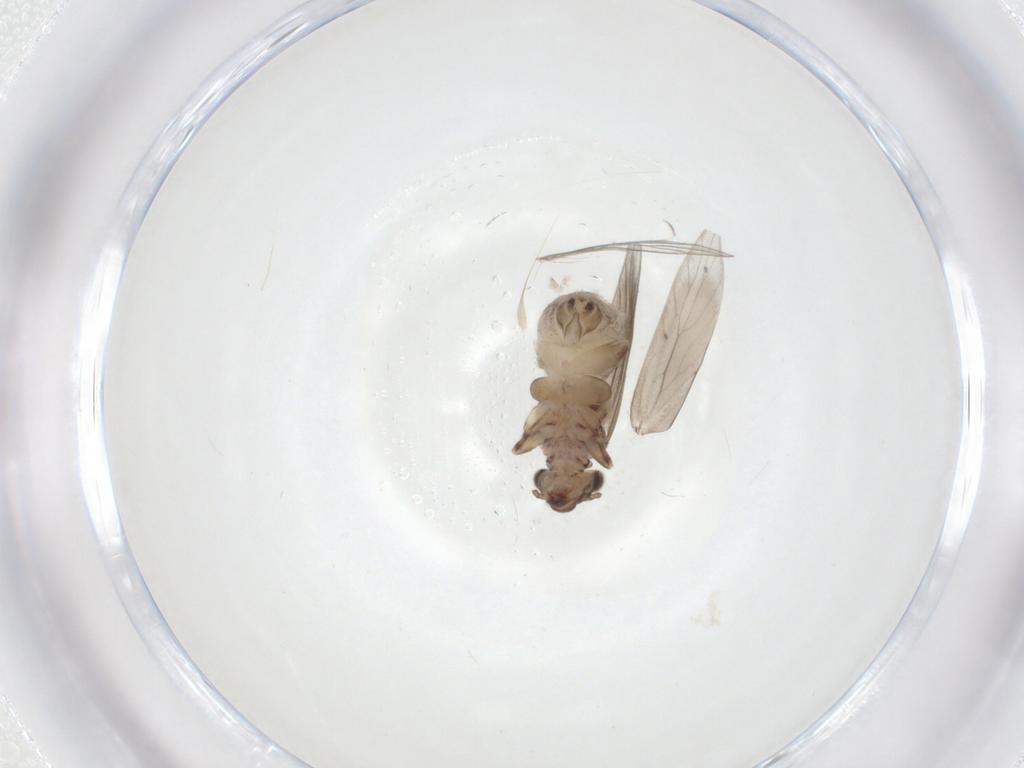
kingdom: Animalia
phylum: Arthropoda
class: Insecta
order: Psocodea
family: Lepidopsocidae
